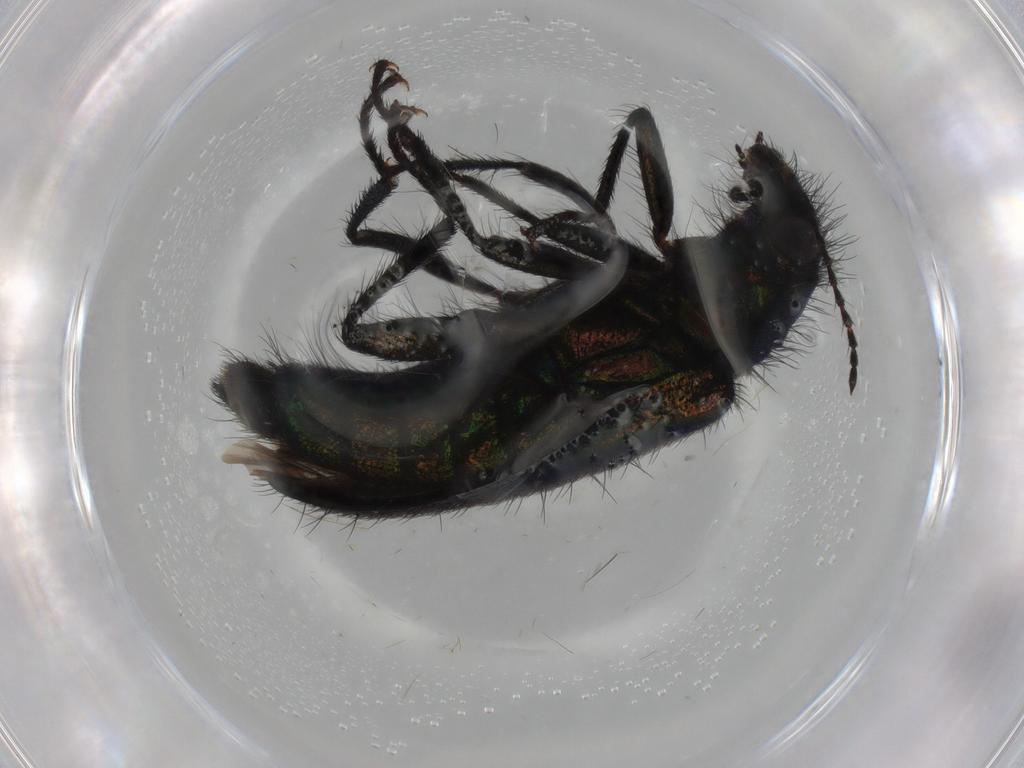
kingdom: Animalia
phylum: Arthropoda
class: Insecta
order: Coleoptera
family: Melyridae
